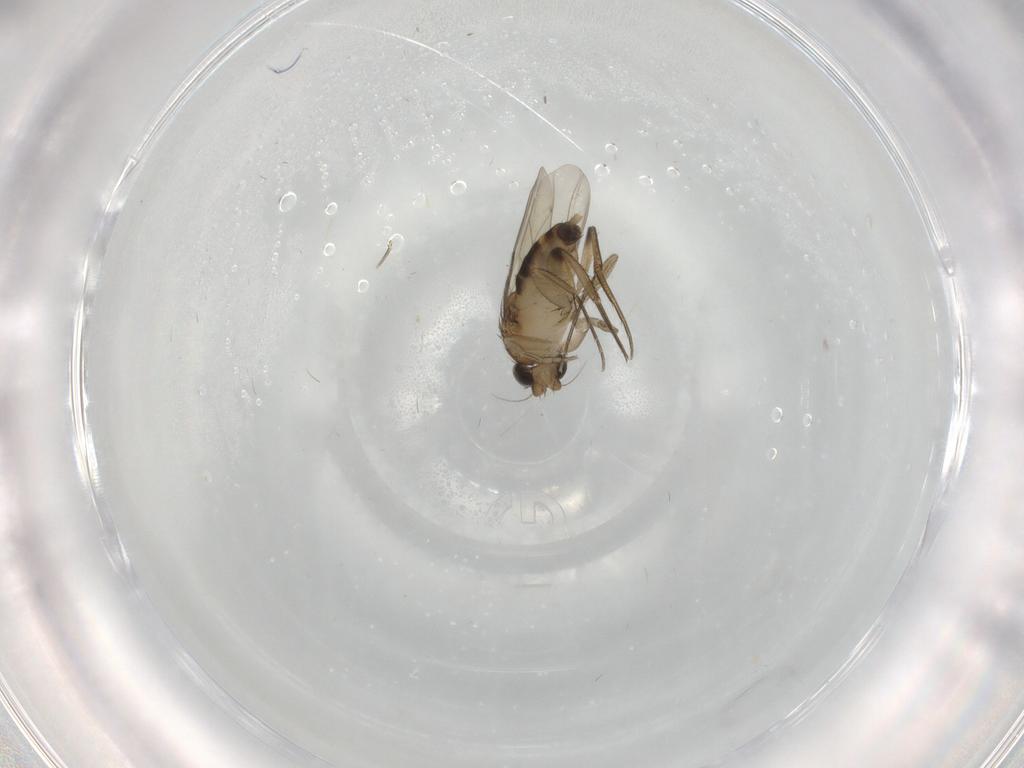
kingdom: Animalia
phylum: Arthropoda
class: Insecta
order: Diptera
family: Phoridae
